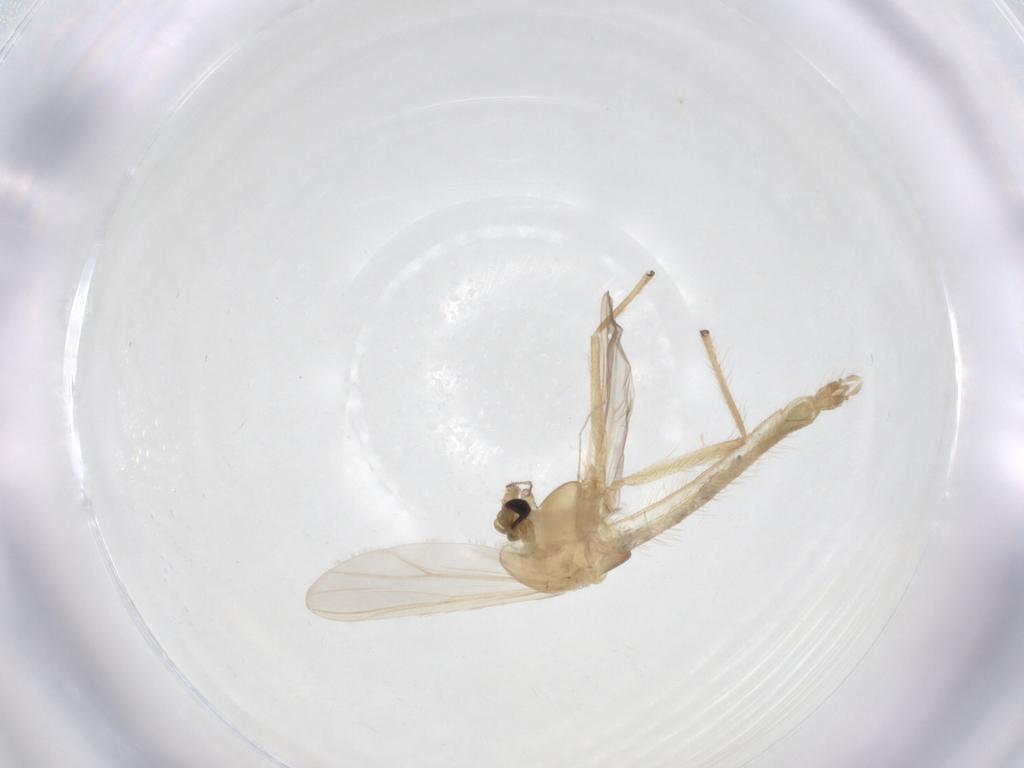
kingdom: Animalia
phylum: Arthropoda
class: Insecta
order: Diptera
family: Chironomidae
